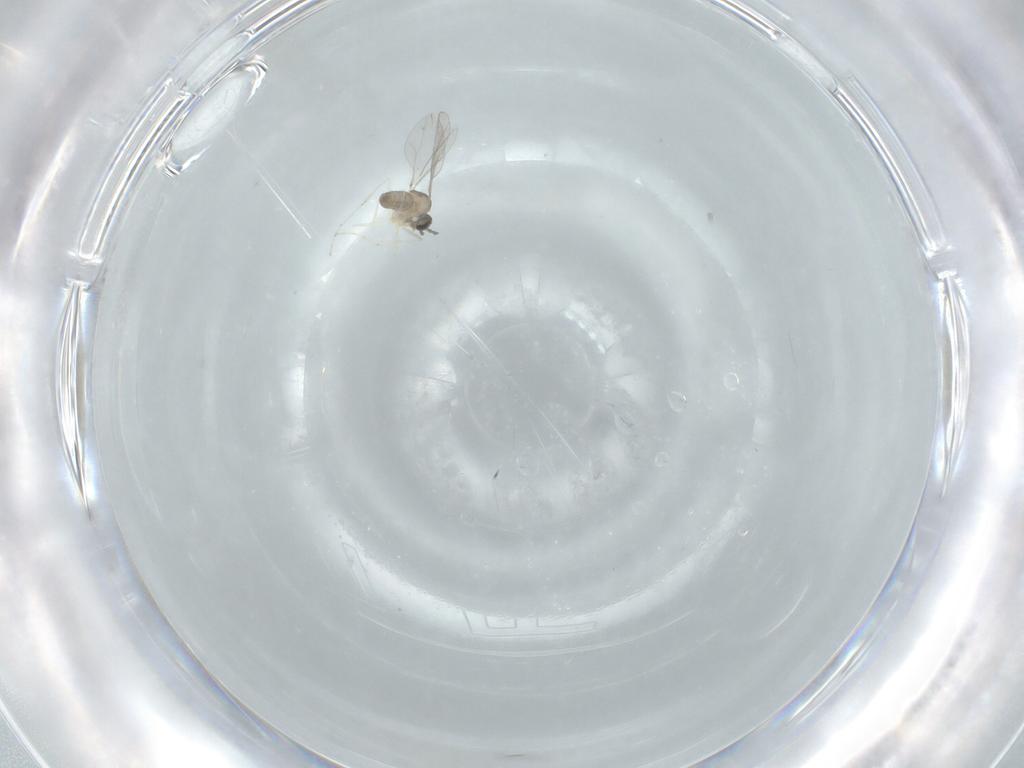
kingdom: Animalia
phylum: Arthropoda
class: Insecta
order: Diptera
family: Cecidomyiidae
